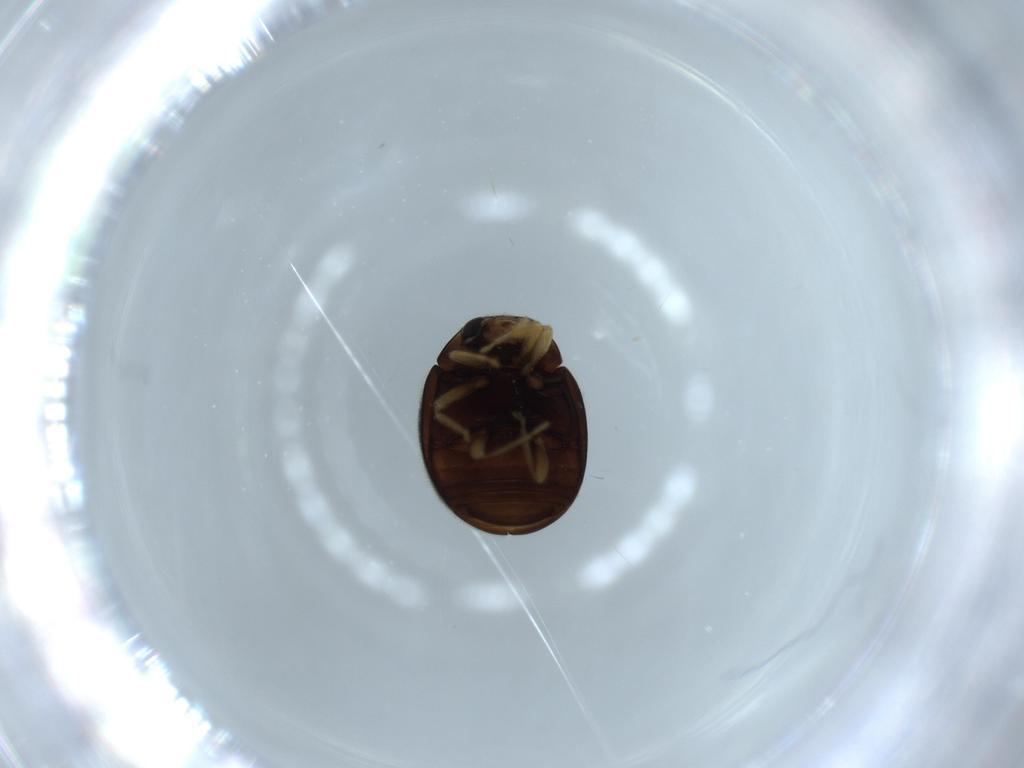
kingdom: Animalia
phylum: Arthropoda
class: Insecta
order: Coleoptera
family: Coccinellidae
